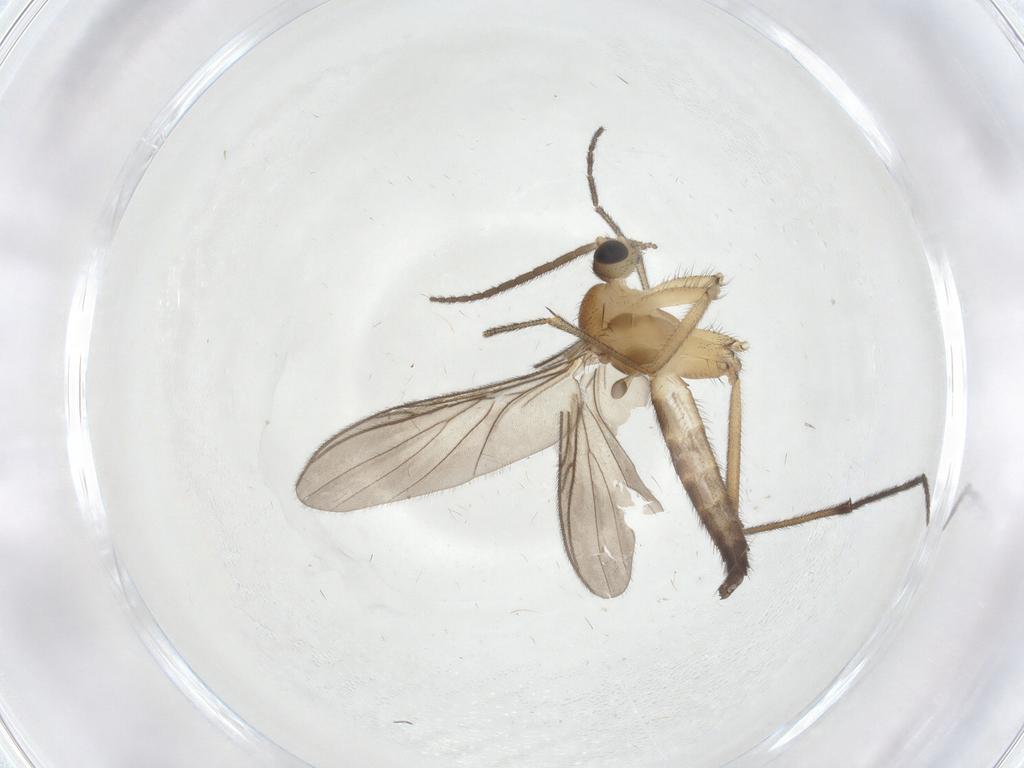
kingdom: Animalia
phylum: Arthropoda
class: Insecta
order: Diptera
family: Keroplatidae
